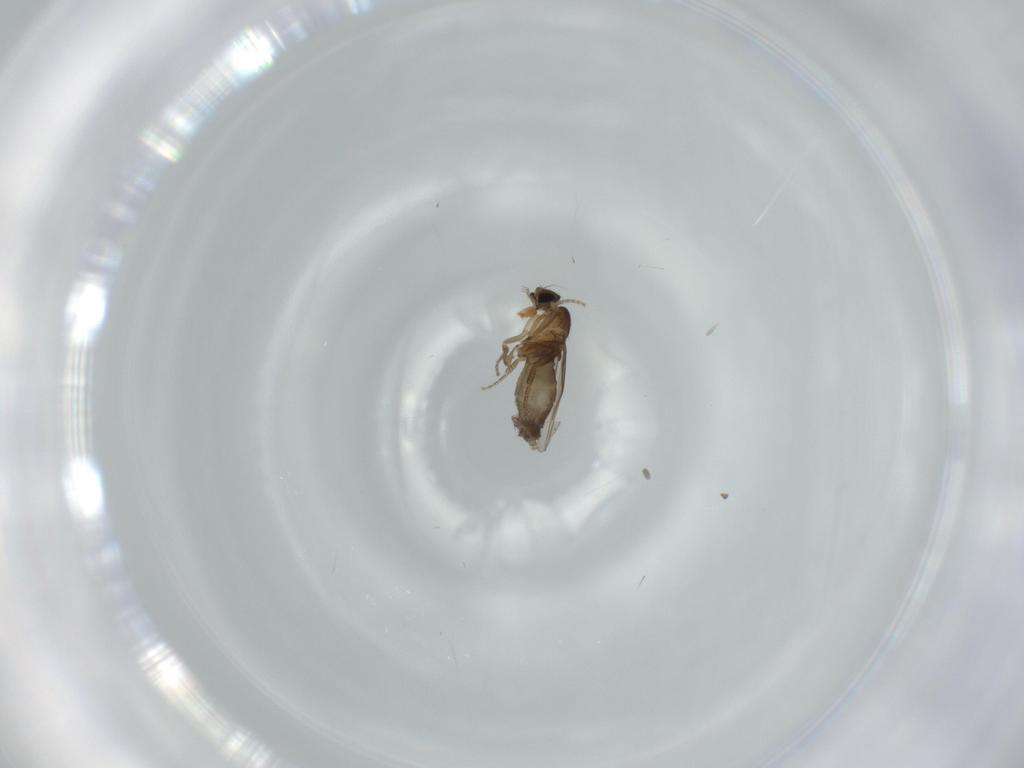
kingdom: Animalia
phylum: Arthropoda
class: Insecta
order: Diptera
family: Phoridae
